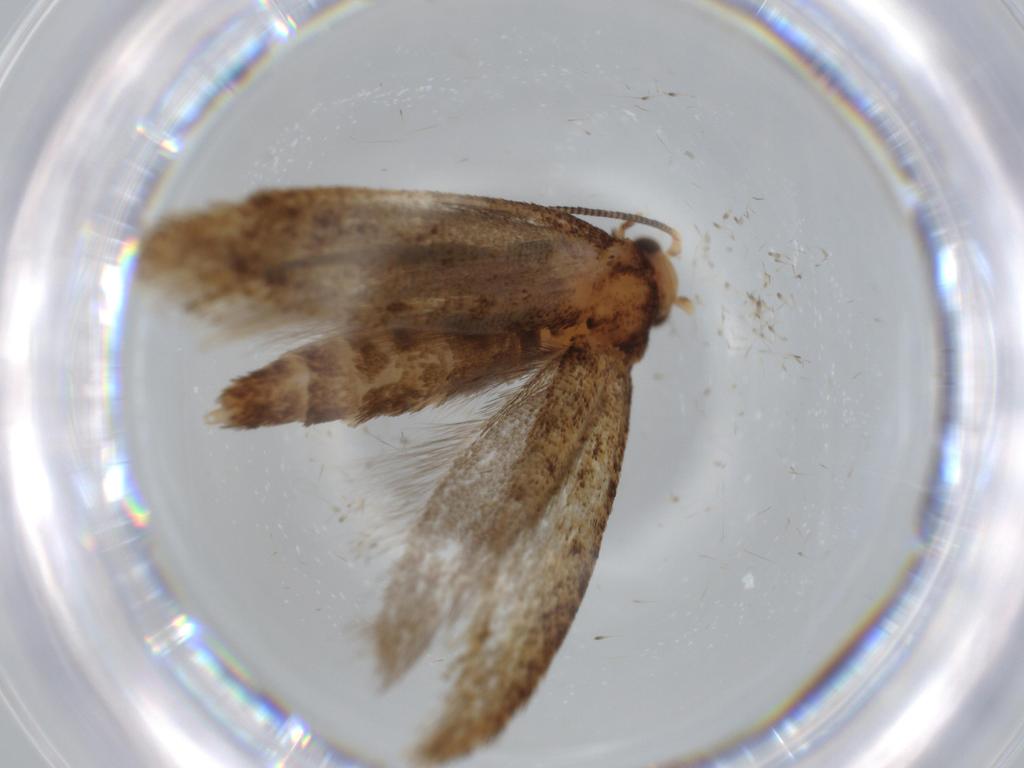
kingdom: Animalia
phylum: Arthropoda
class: Insecta
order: Lepidoptera
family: Tineidae
